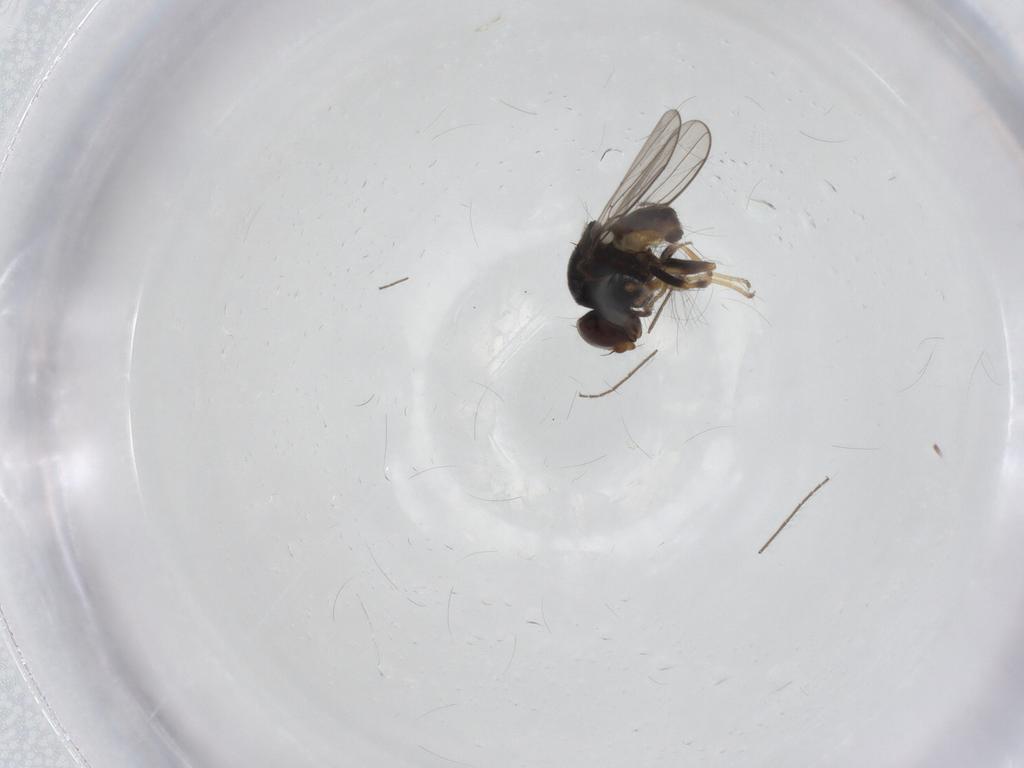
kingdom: Animalia
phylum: Arthropoda
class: Insecta
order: Diptera
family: Chloropidae
